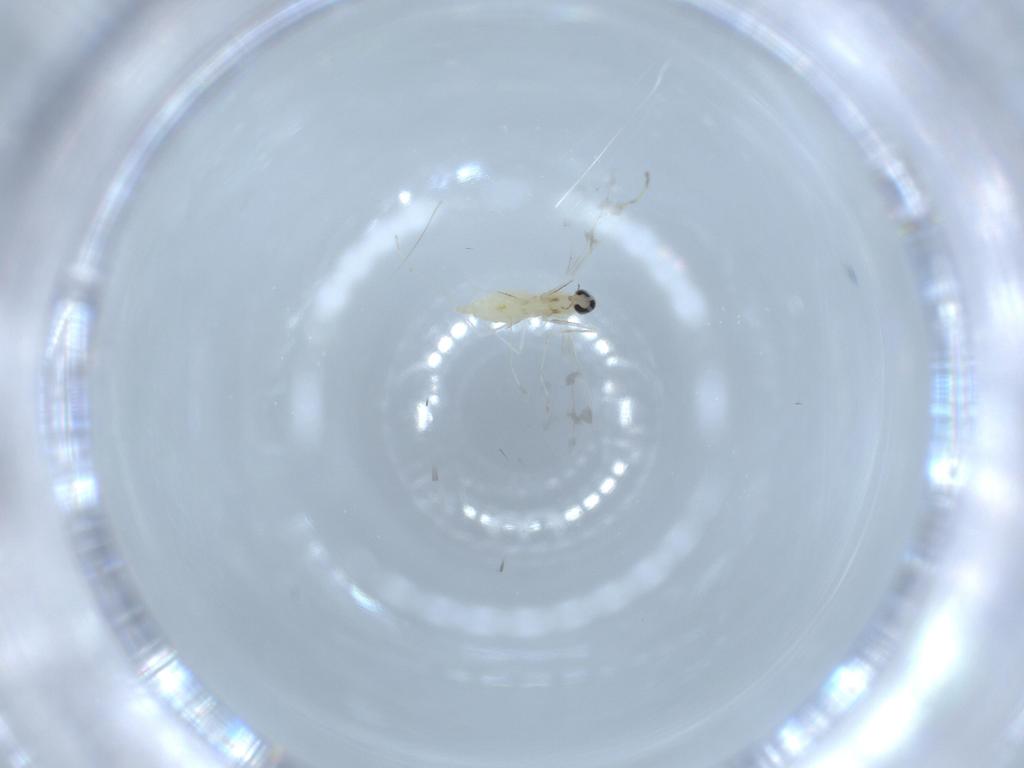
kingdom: Animalia
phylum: Arthropoda
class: Insecta
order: Diptera
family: Cecidomyiidae
